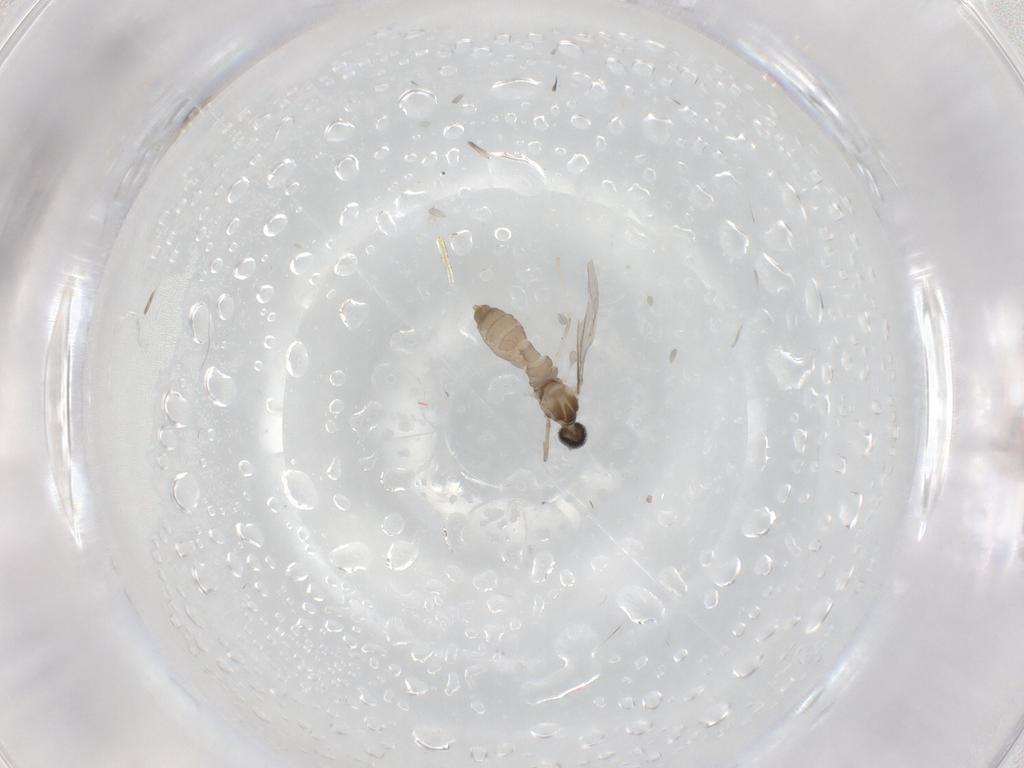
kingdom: Animalia
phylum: Arthropoda
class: Insecta
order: Diptera
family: Cecidomyiidae
